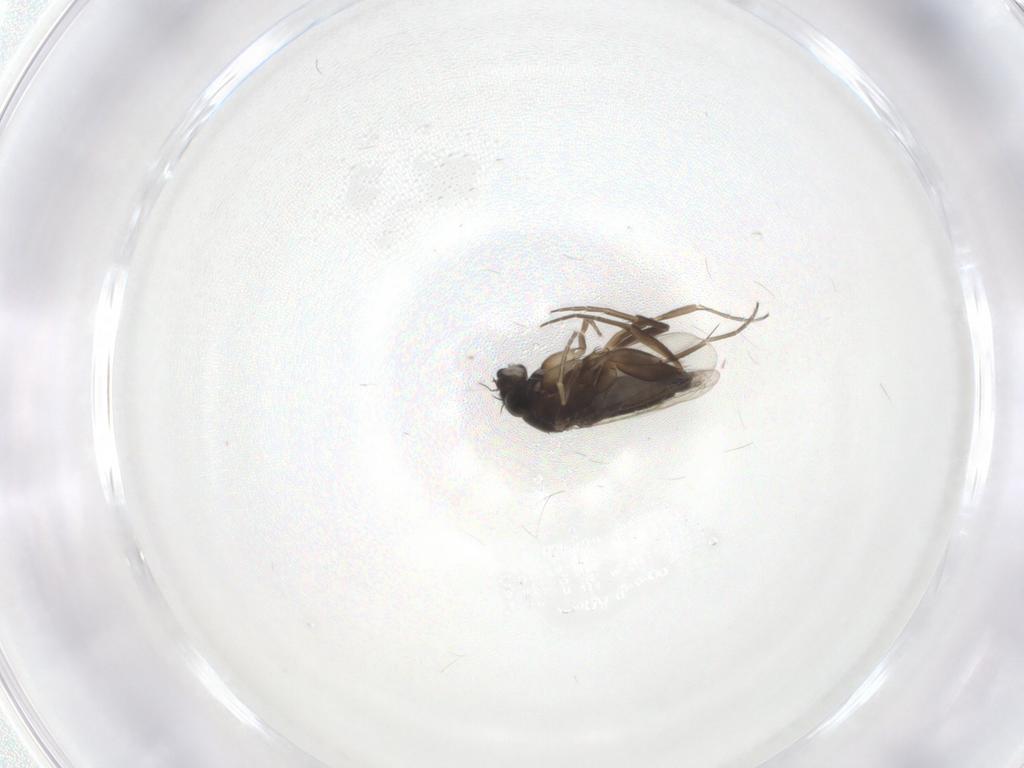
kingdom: Animalia
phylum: Arthropoda
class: Insecta
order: Diptera
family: Phoridae
